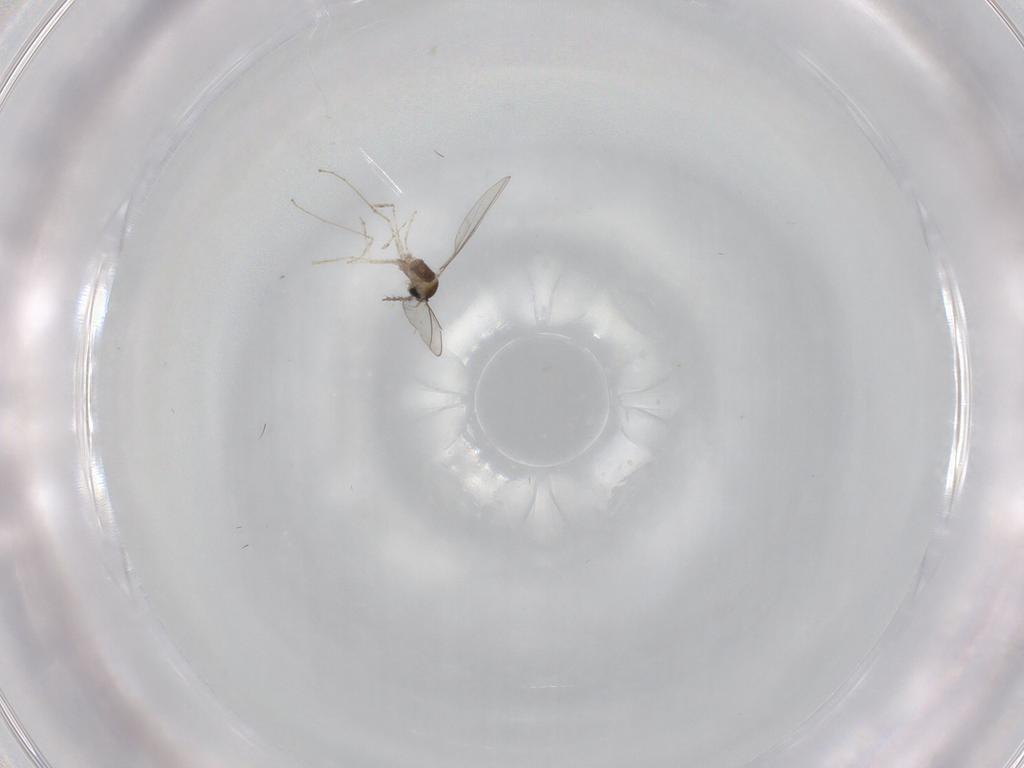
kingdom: Animalia
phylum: Arthropoda
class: Insecta
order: Diptera
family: Cecidomyiidae
